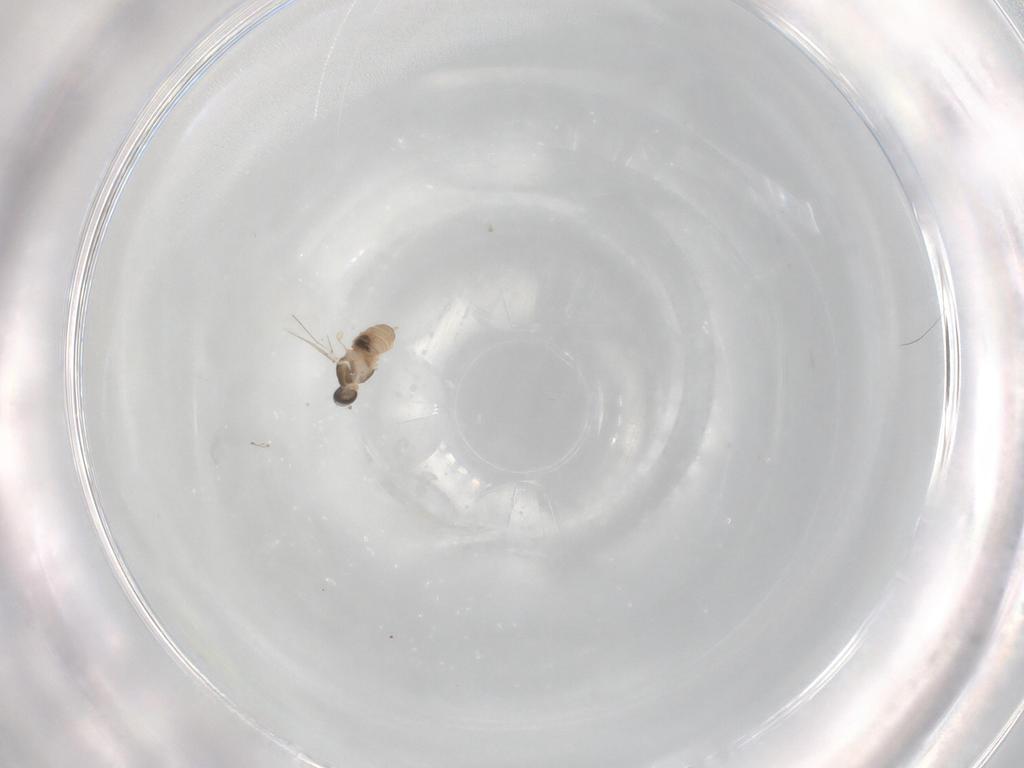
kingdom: Animalia
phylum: Arthropoda
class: Insecta
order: Diptera
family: Cecidomyiidae
